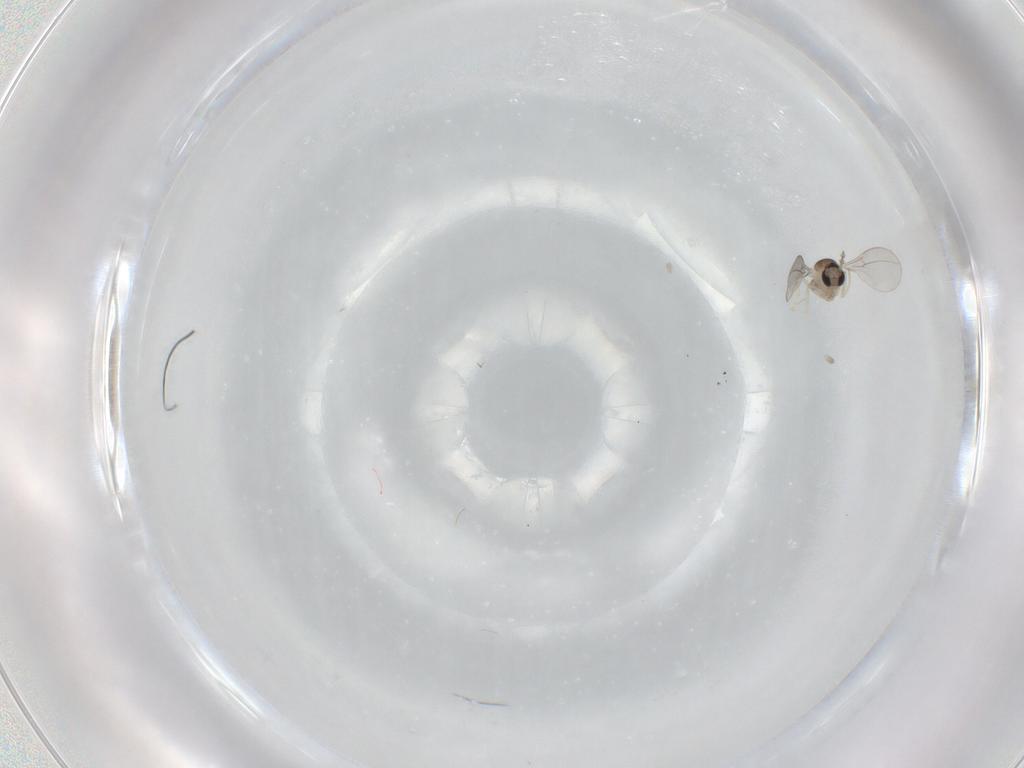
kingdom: Animalia
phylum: Arthropoda
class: Insecta
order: Diptera
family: Cecidomyiidae
